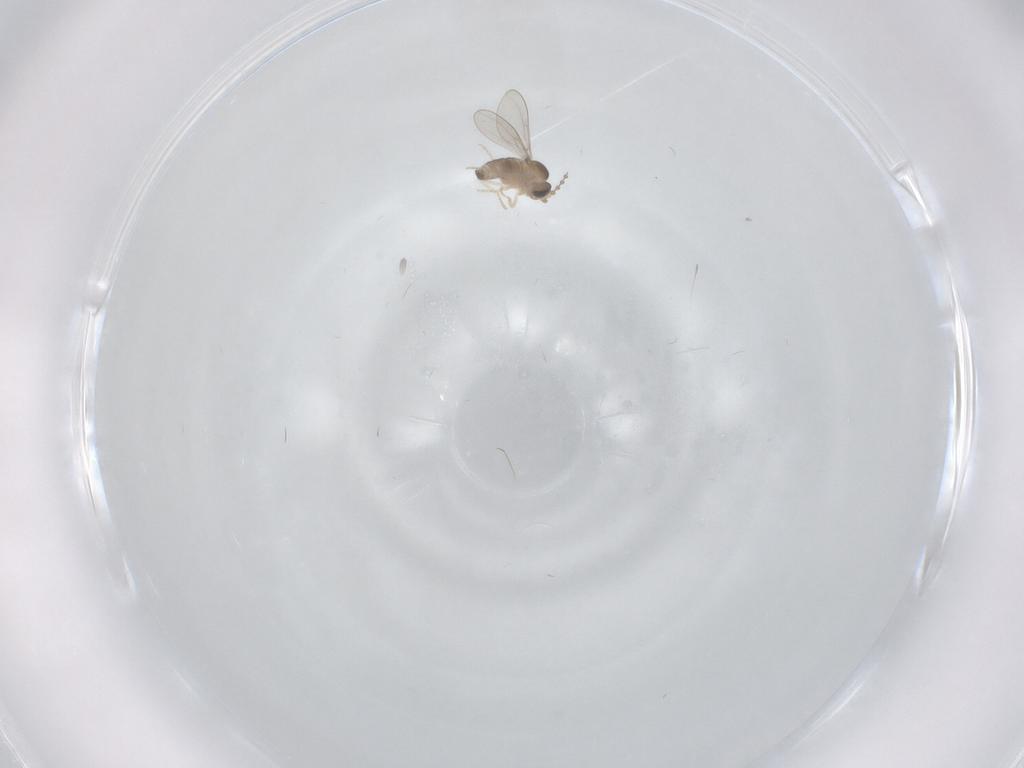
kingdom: Animalia
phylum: Arthropoda
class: Insecta
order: Diptera
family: Cecidomyiidae
